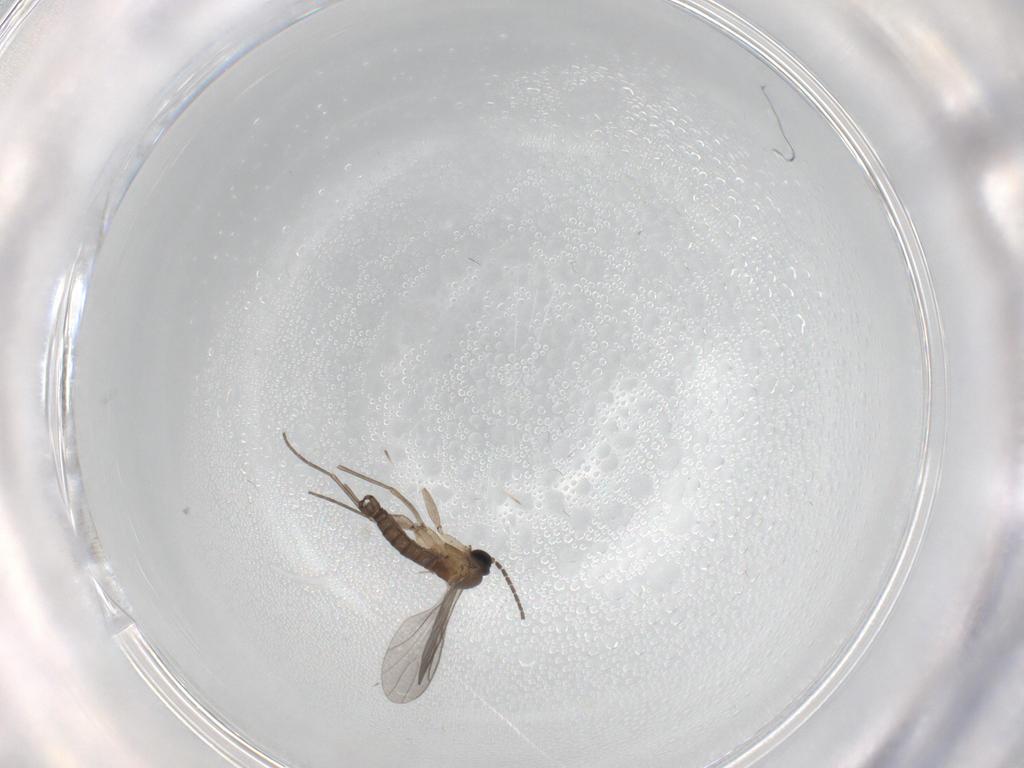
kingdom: Animalia
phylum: Arthropoda
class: Insecta
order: Diptera
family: Sciaridae
